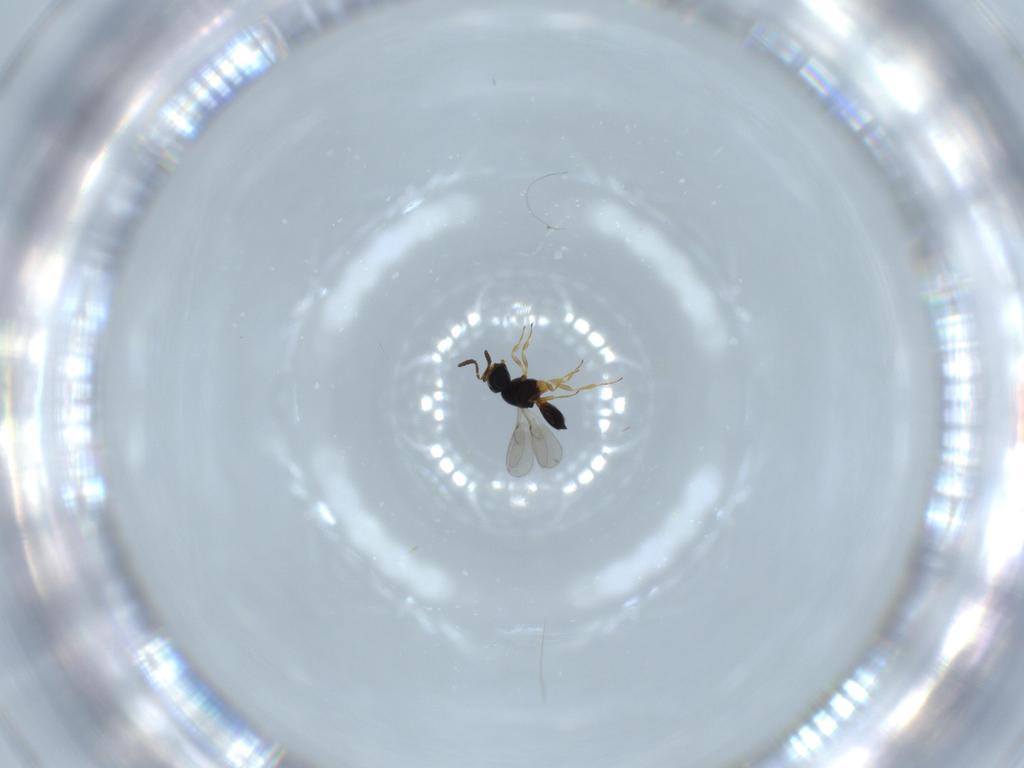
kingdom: Animalia
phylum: Arthropoda
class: Insecta
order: Hymenoptera
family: Scelionidae
